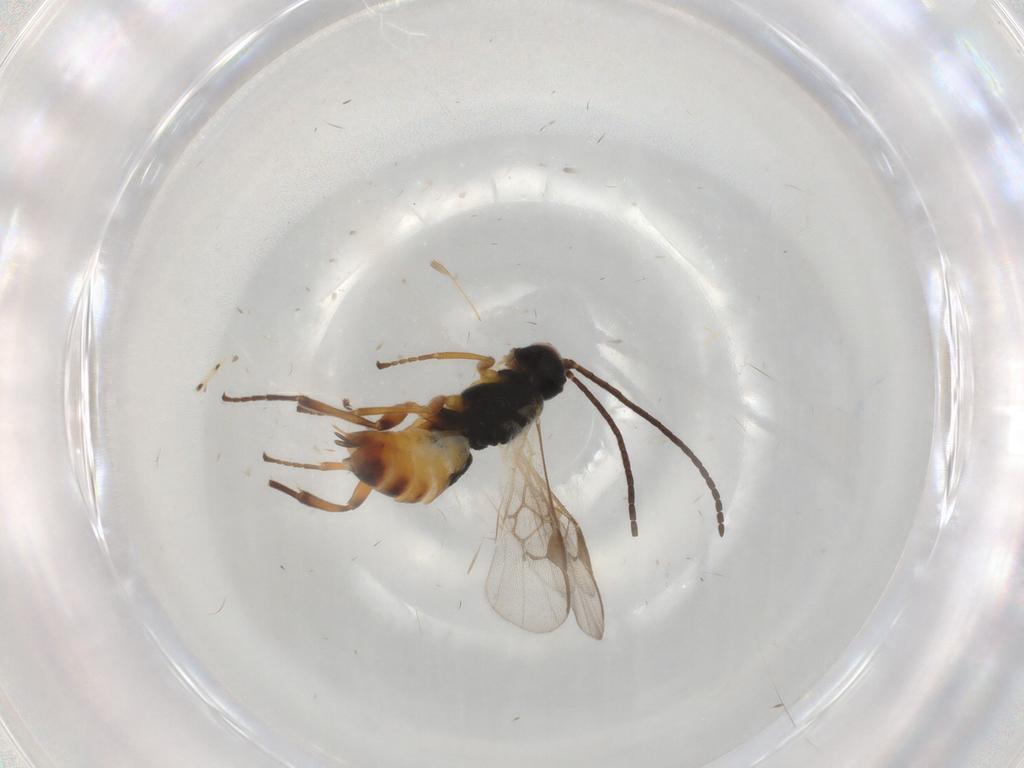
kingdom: Animalia
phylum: Arthropoda
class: Insecta
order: Hymenoptera
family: Braconidae
